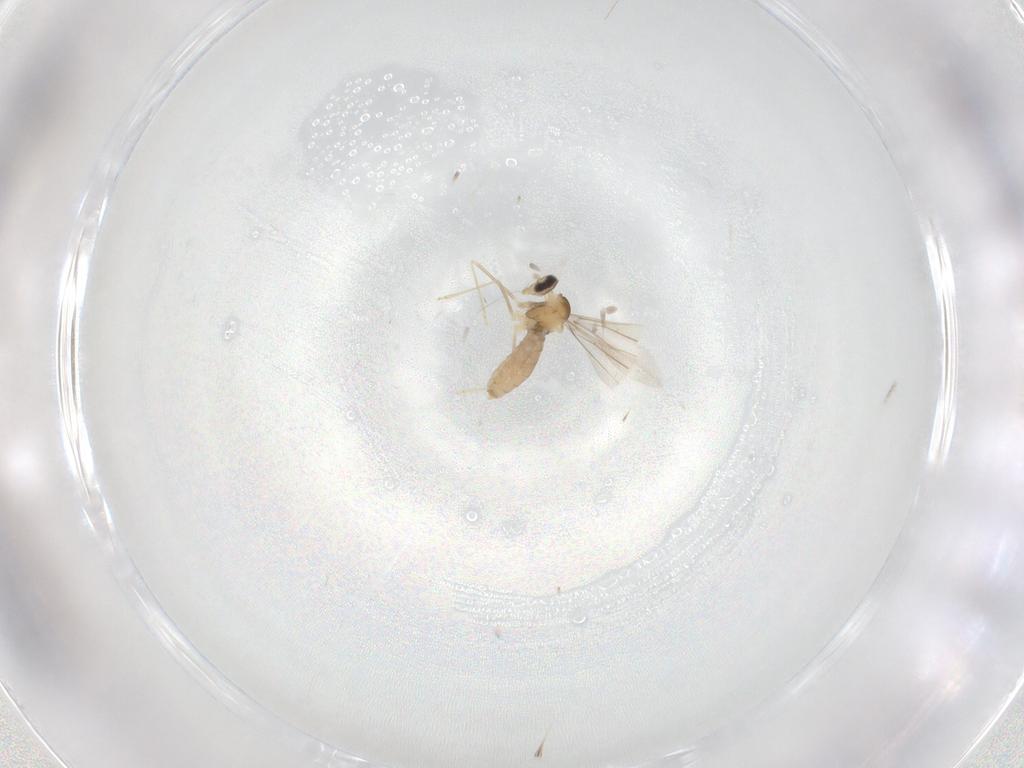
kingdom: Animalia
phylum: Arthropoda
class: Insecta
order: Diptera
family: Cecidomyiidae
